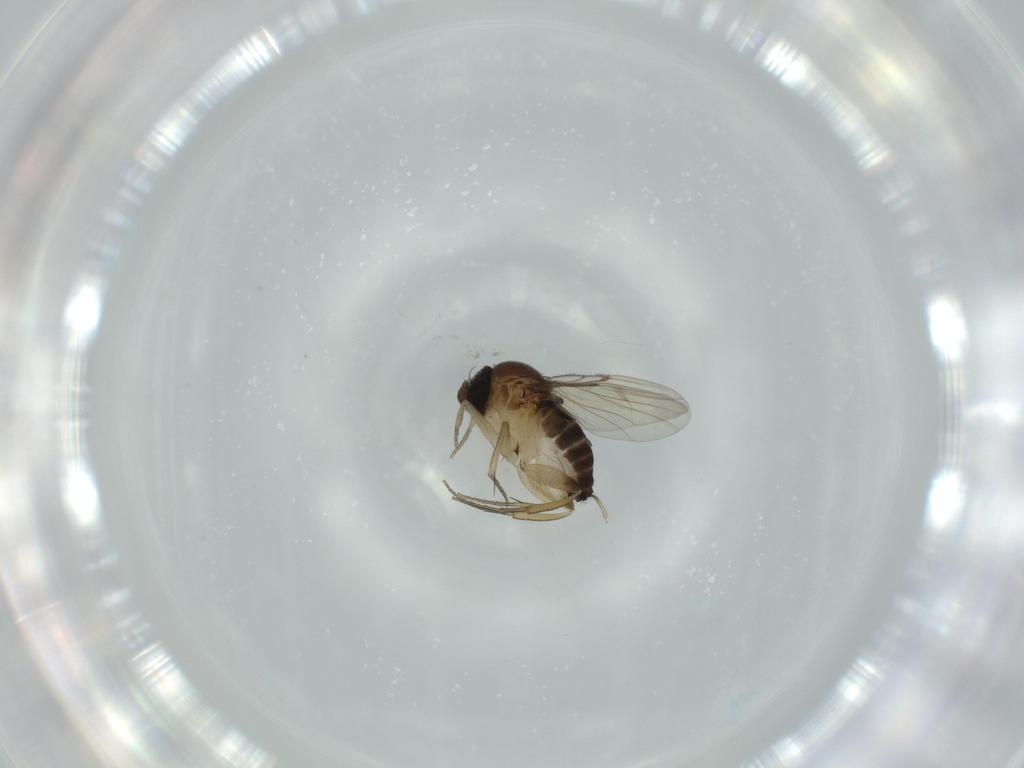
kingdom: Animalia
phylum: Arthropoda
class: Insecta
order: Diptera
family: Phoridae
